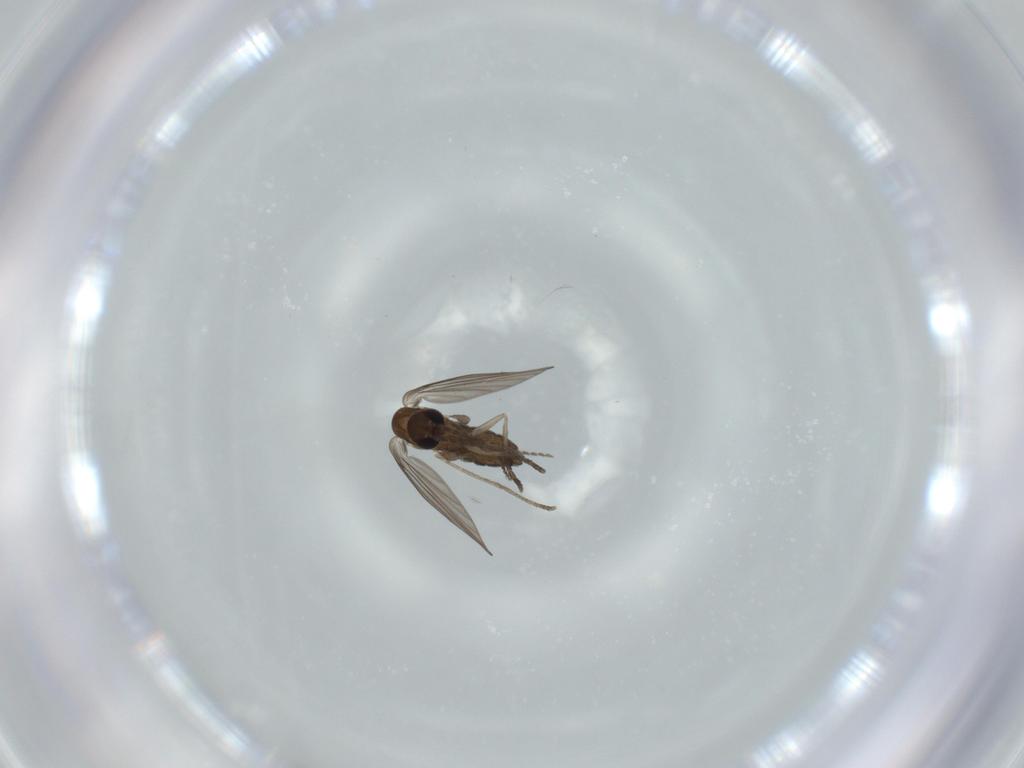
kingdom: Animalia
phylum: Arthropoda
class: Insecta
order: Diptera
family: Psychodidae
